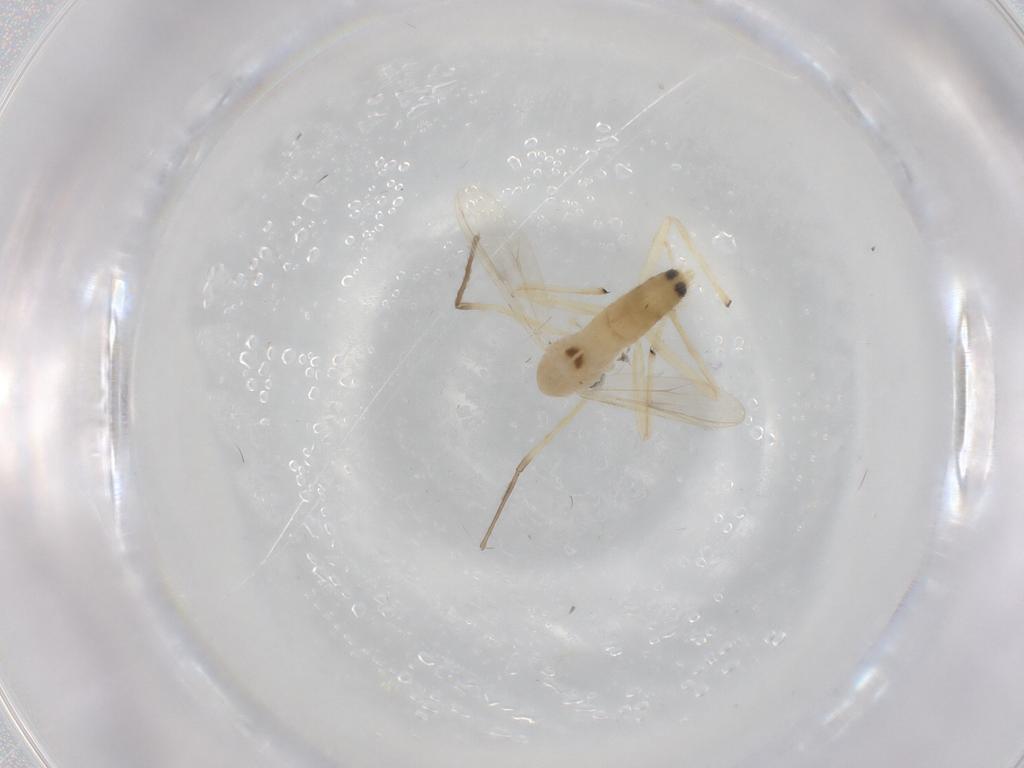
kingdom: Animalia
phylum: Arthropoda
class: Insecta
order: Diptera
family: Chironomidae
